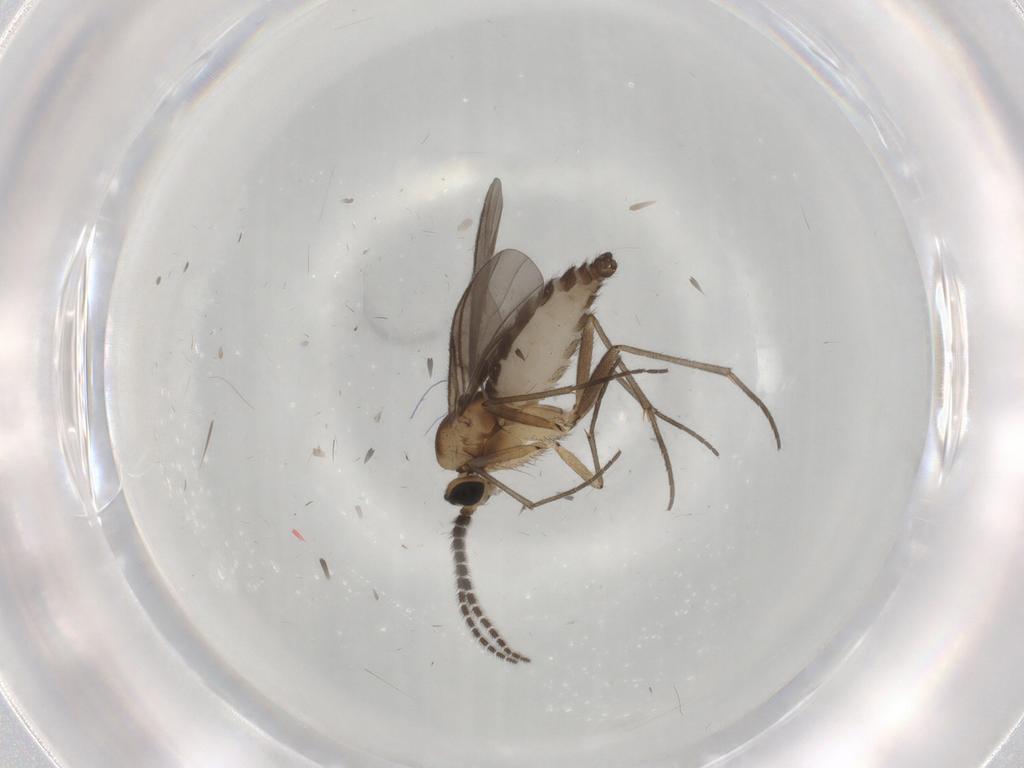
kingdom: Animalia
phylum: Arthropoda
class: Insecta
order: Diptera
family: Sciaridae
